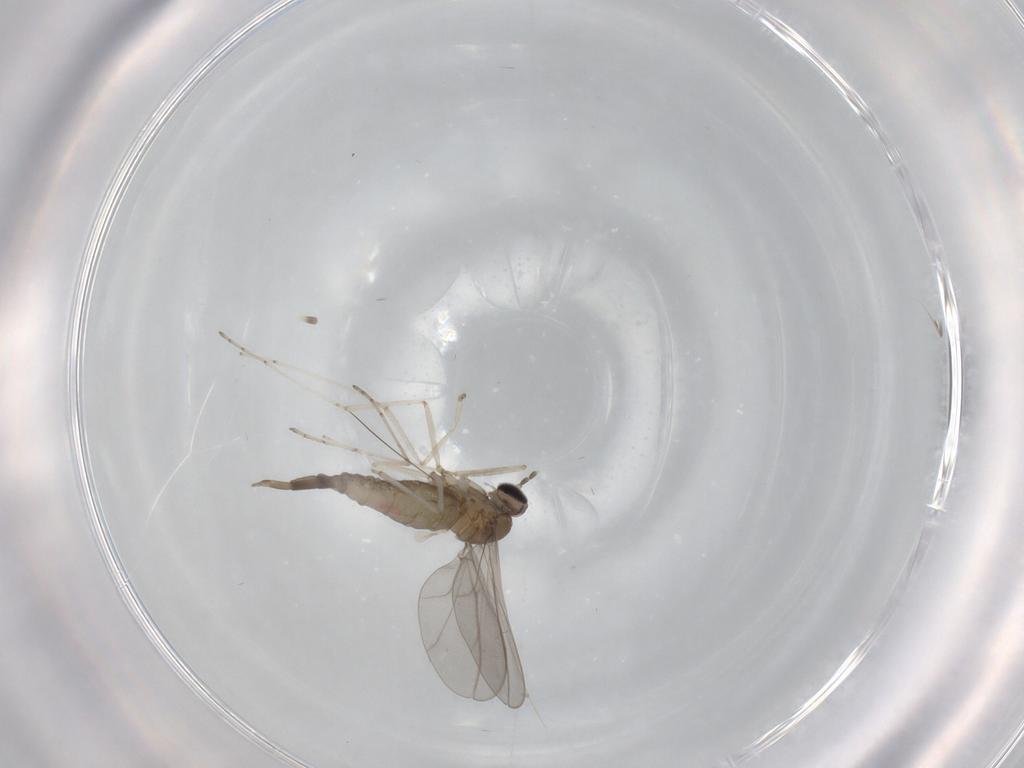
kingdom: Animalia
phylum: Arthropoda
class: Insecta
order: Diptera
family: Cecidomyiidae
